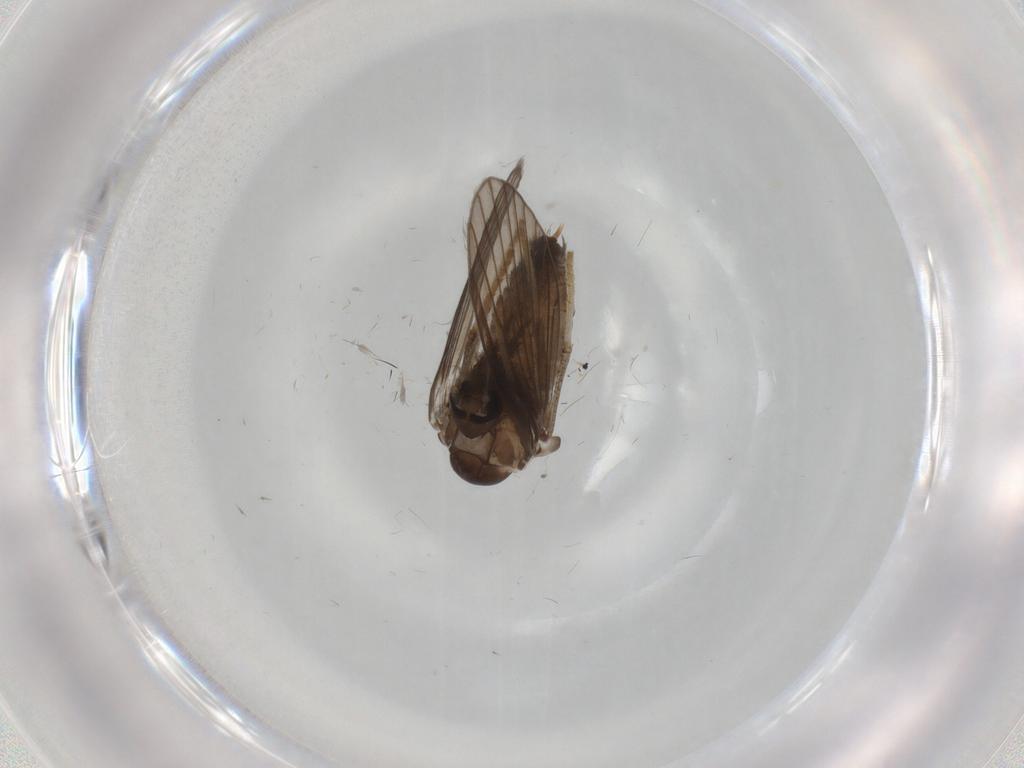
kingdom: Animalia
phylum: Arthropoda
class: Insecta
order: Diptera
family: Psychodidae
